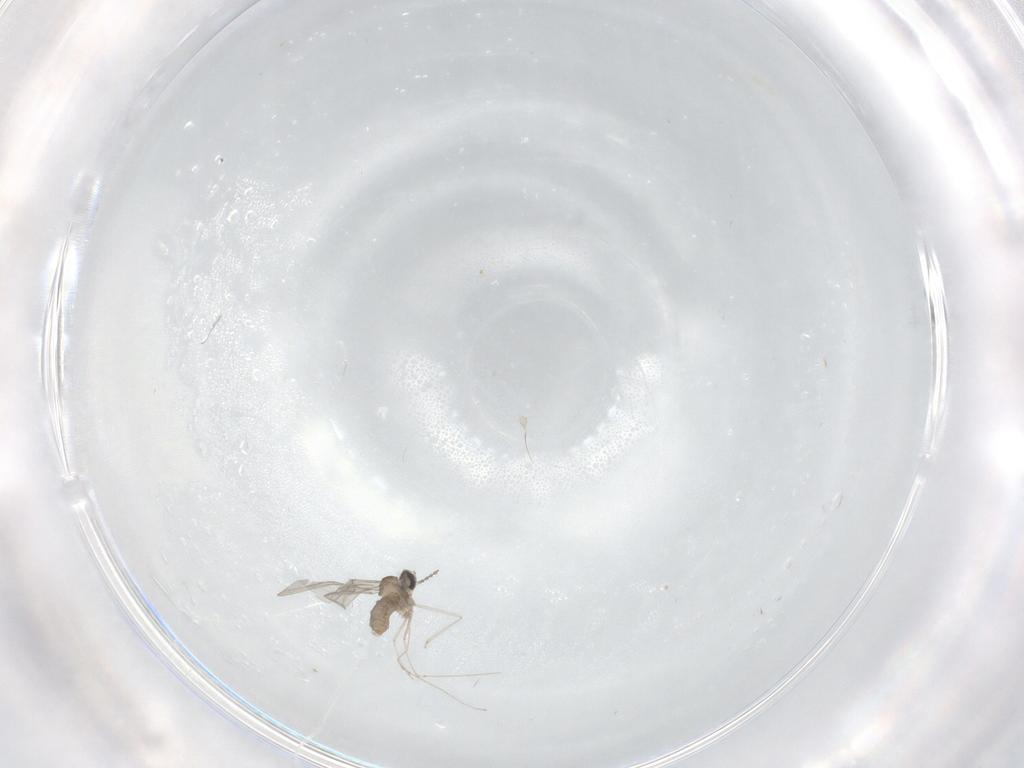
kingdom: Animalia
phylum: Arthropoda
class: Insecta
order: Diptera
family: Cecidomyiidae
